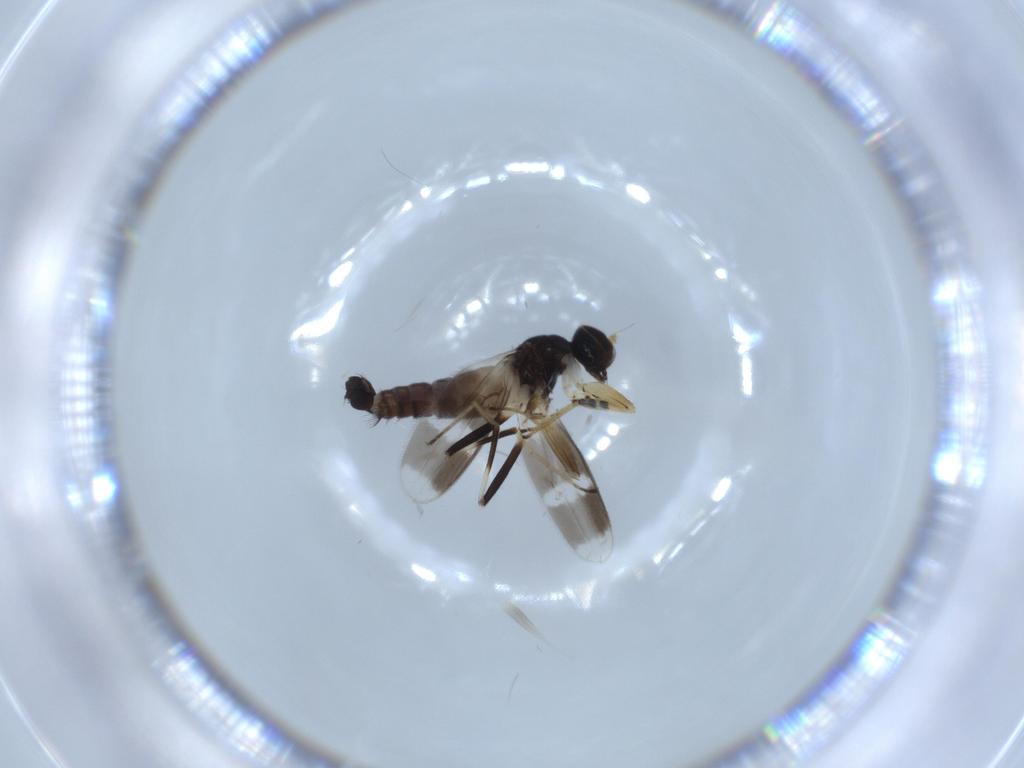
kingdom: Animalia
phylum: Arthropoda
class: Insecta
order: Diptera
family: Hybotidae
